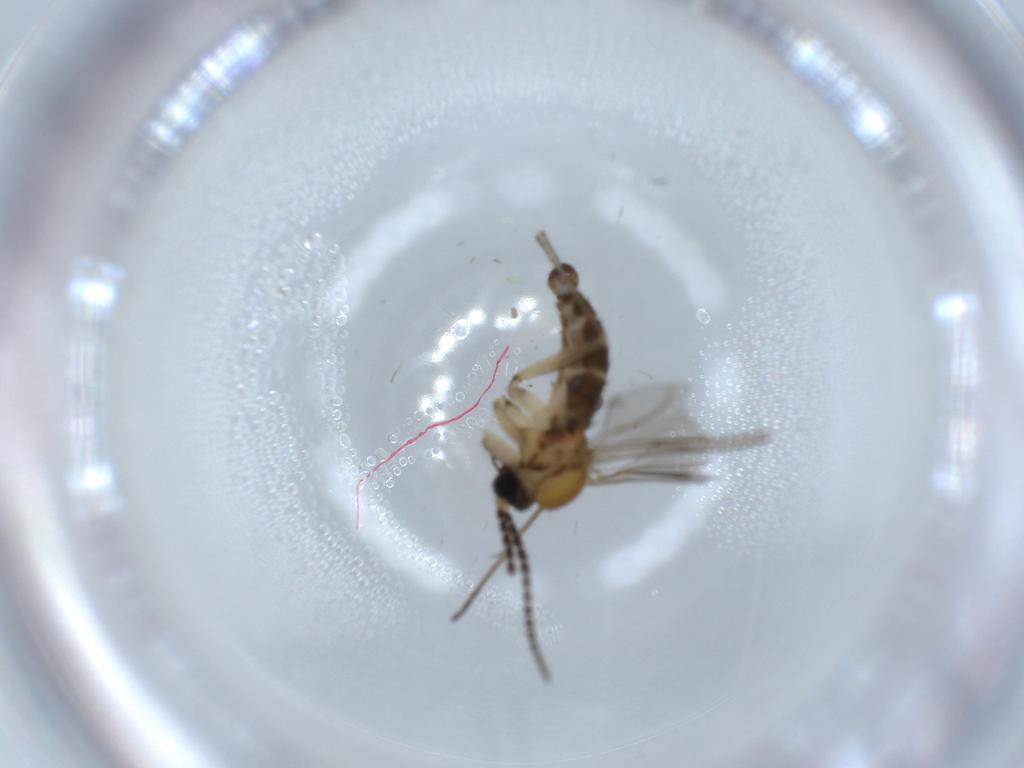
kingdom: Animalia
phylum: Arthropoda
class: Insecta
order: Diptera
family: Sciaridae
